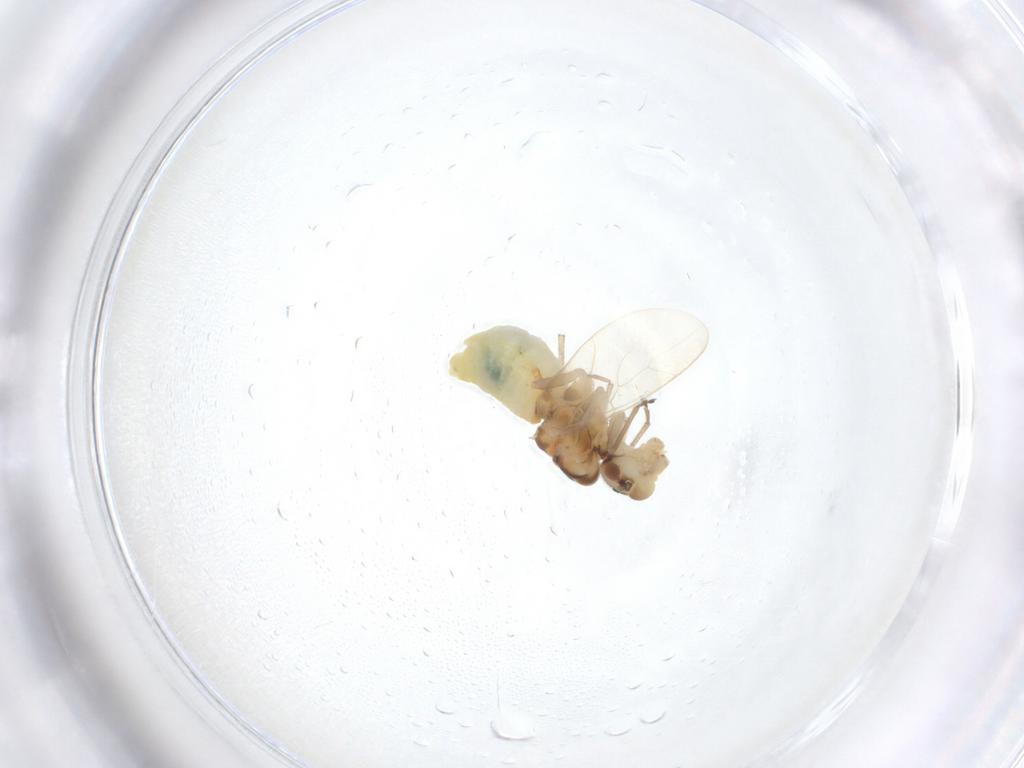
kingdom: Animalia
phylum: Arthropoda
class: Insecta
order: Psocodea
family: Caeciliusidae
